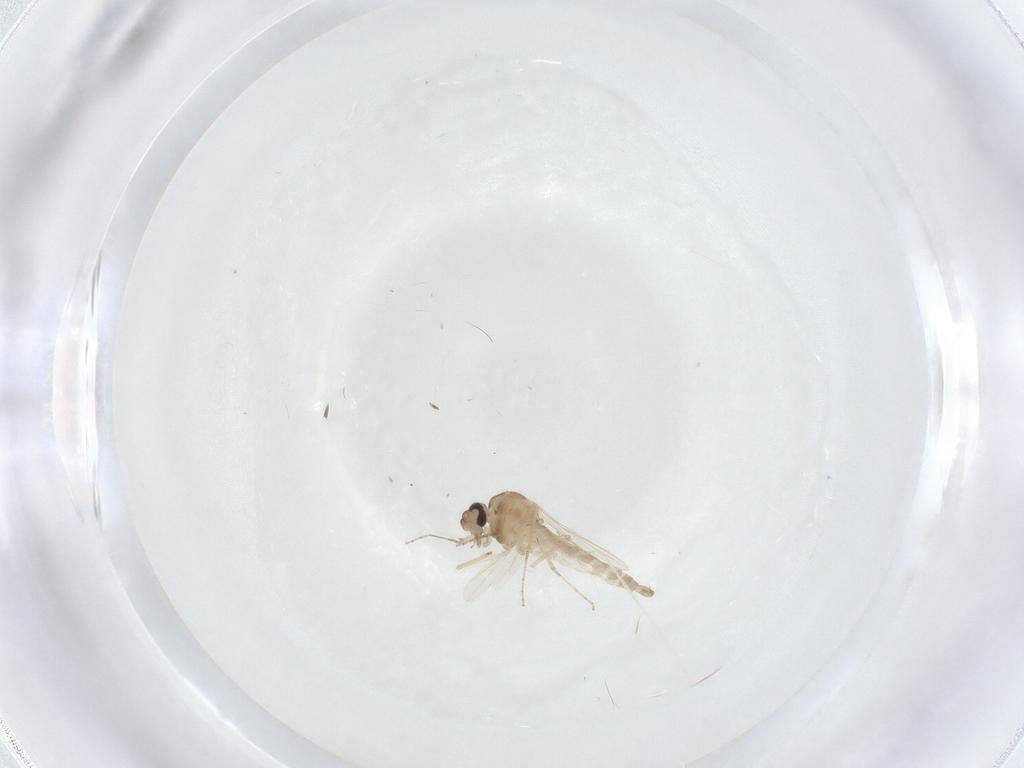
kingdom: Animalia
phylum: Arthropoda
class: Insecta
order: Diptera
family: Ceratopogonidae
